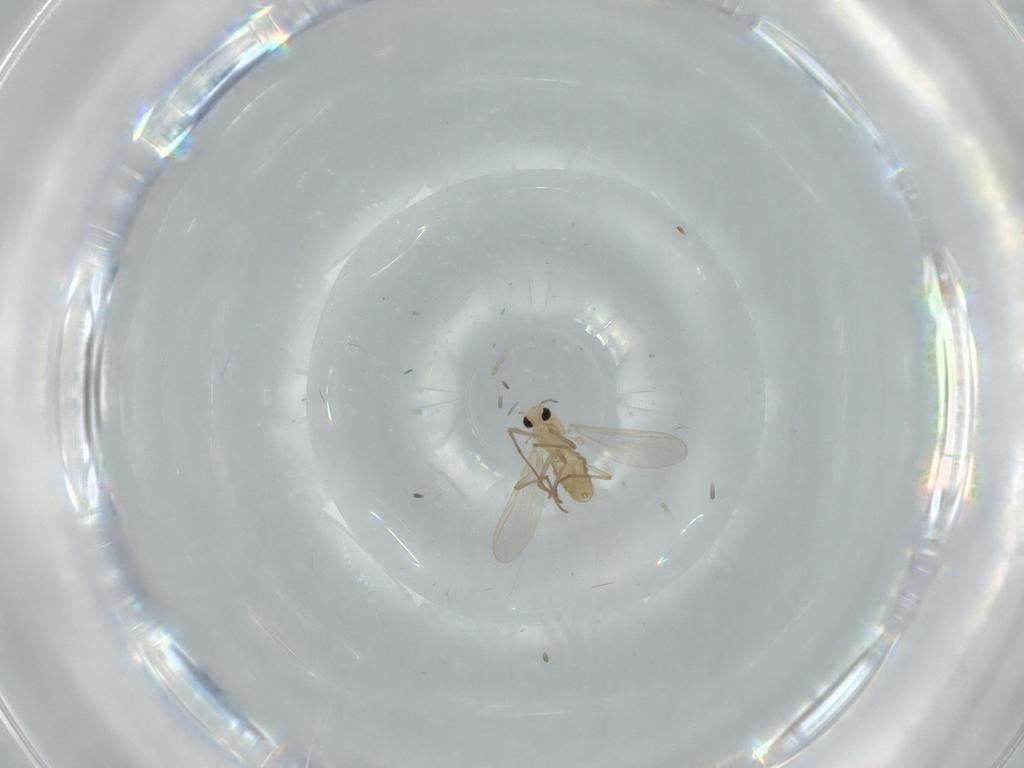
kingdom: Animalia
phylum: Arthropoda
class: Insecta
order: Diptera
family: Chironomidae
